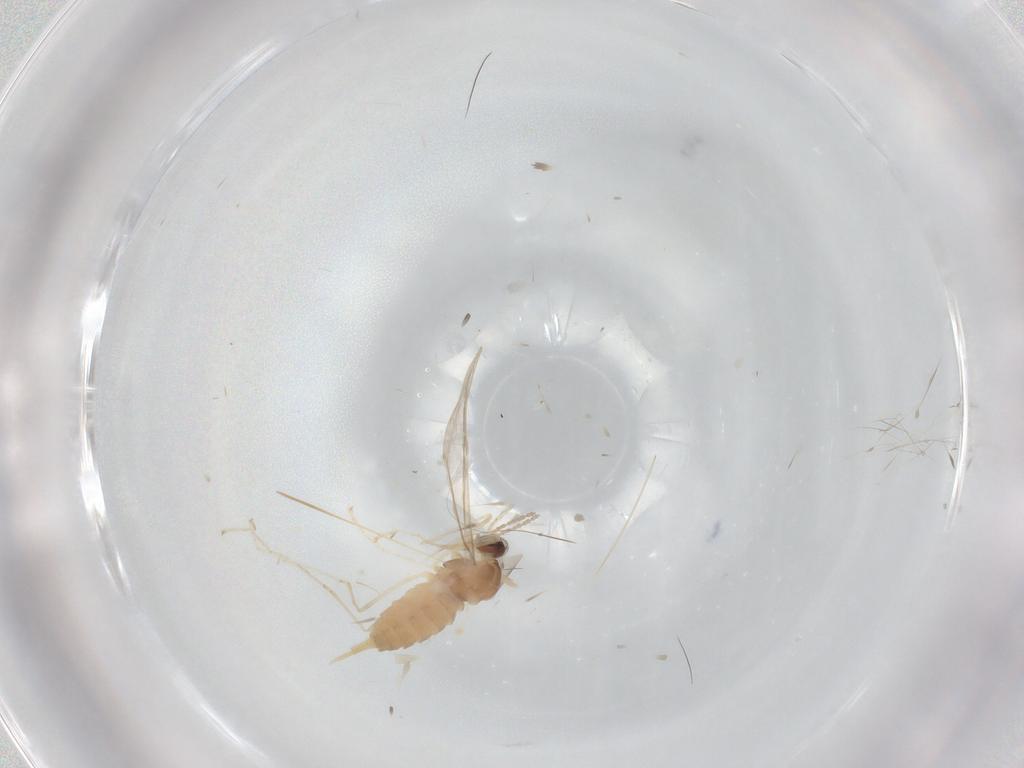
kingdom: Animalia
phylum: Arthropoda
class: Insecta
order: Diptera
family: Cecidomyiidae
